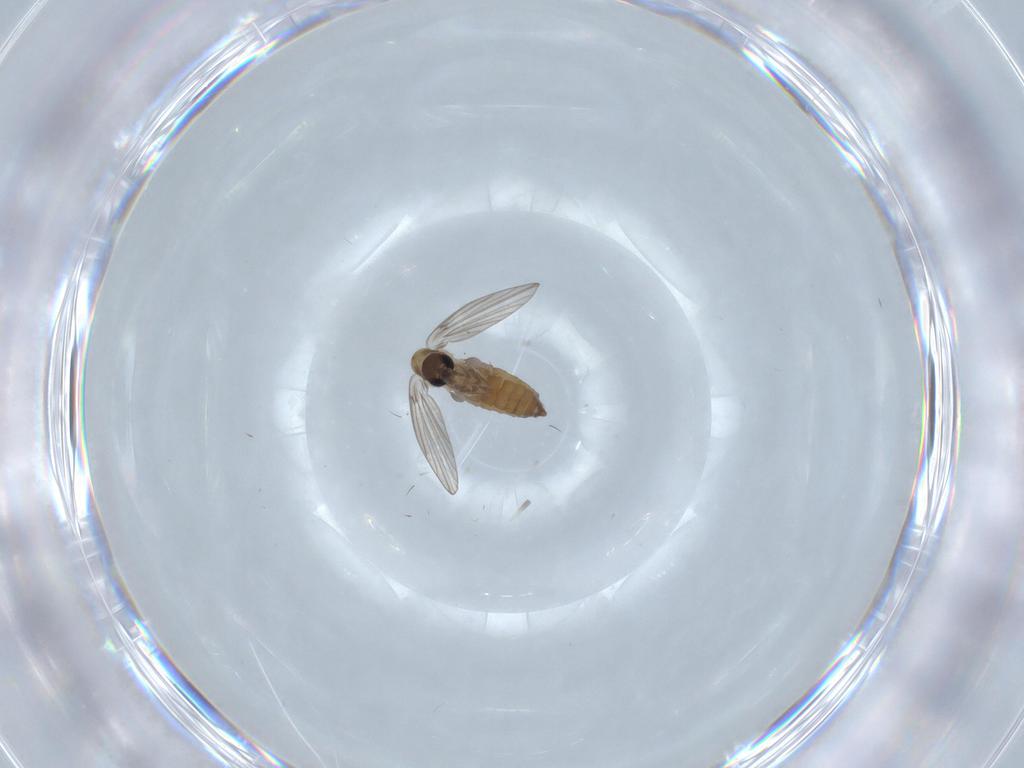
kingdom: Animalia
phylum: Arthropoda
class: Insecta
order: Diptera
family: Psychodidae
